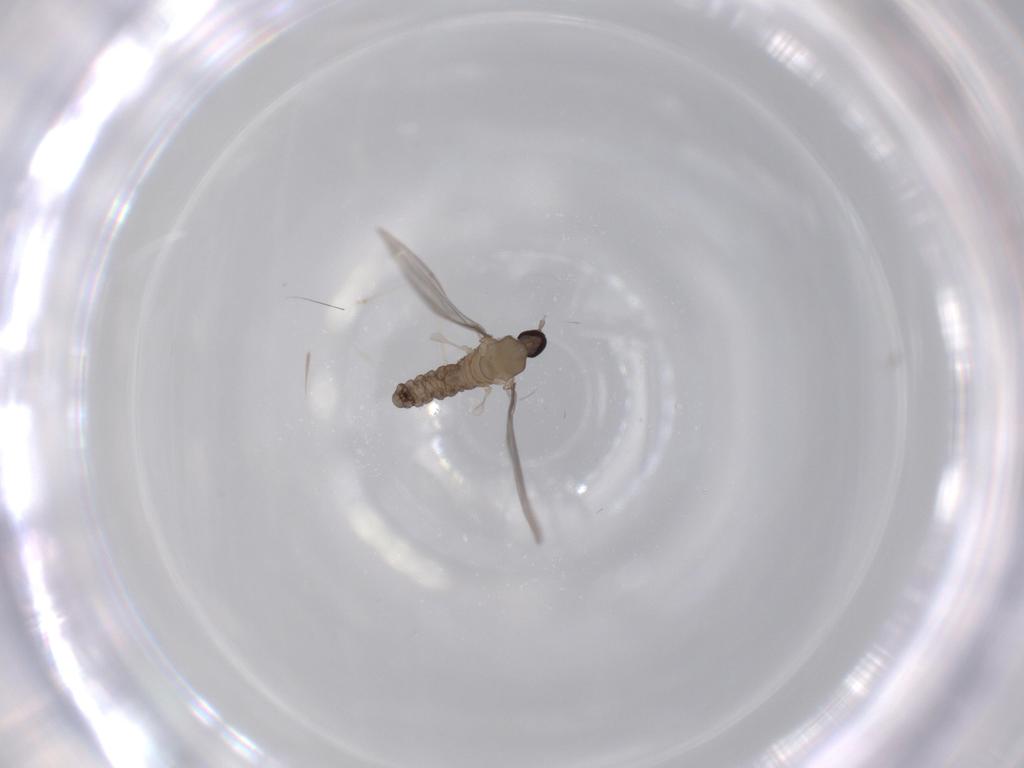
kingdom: Animalia
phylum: Arthropoda
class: Insecta
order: Diptera
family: Cecidomyiidae
